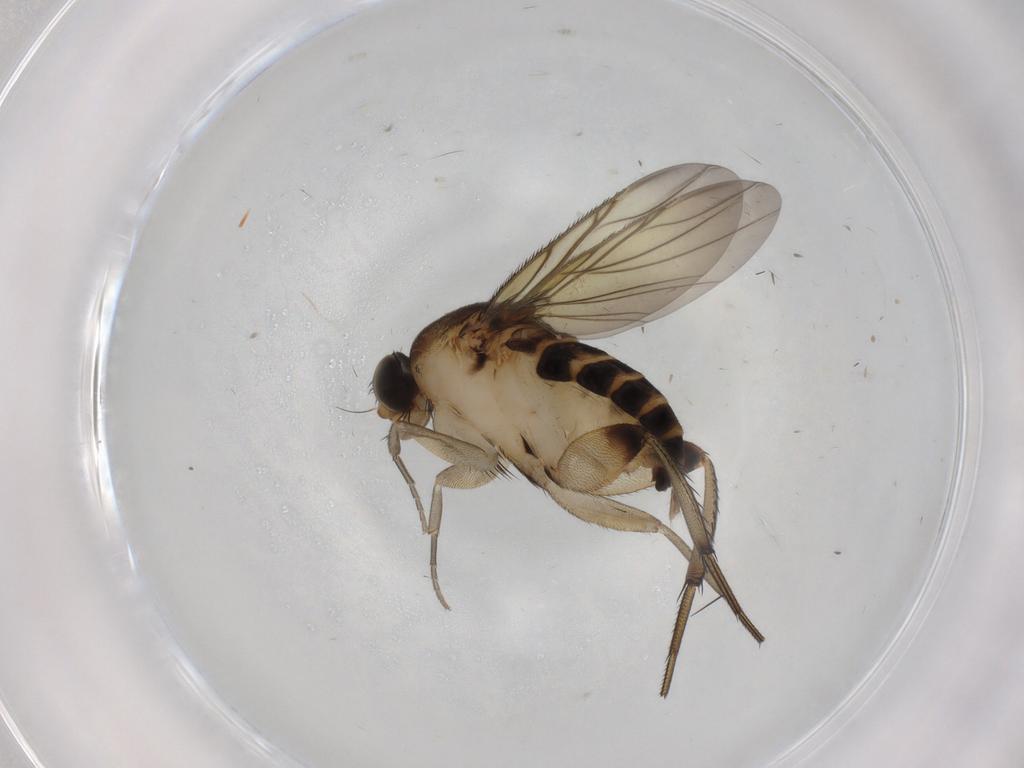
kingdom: Animalia
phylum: Arthropoda
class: Insecta
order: Diptera
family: Phoridae
